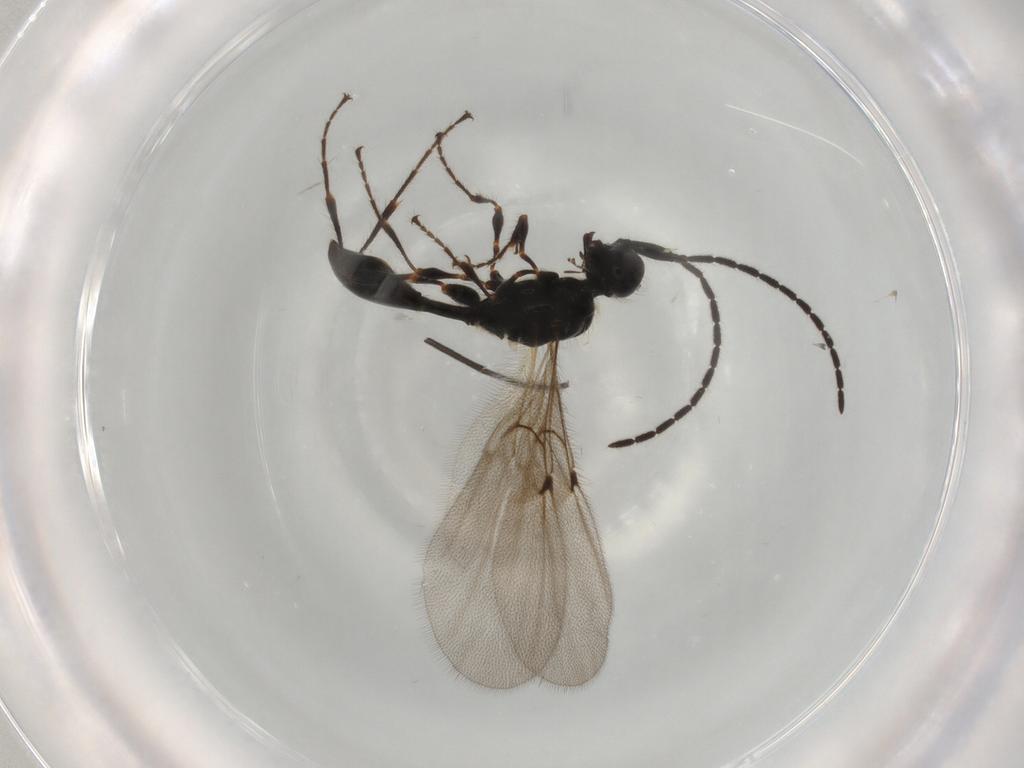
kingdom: Animalia
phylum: Arthropoda
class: Insecta
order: Hymenoptera
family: Diapriidae
